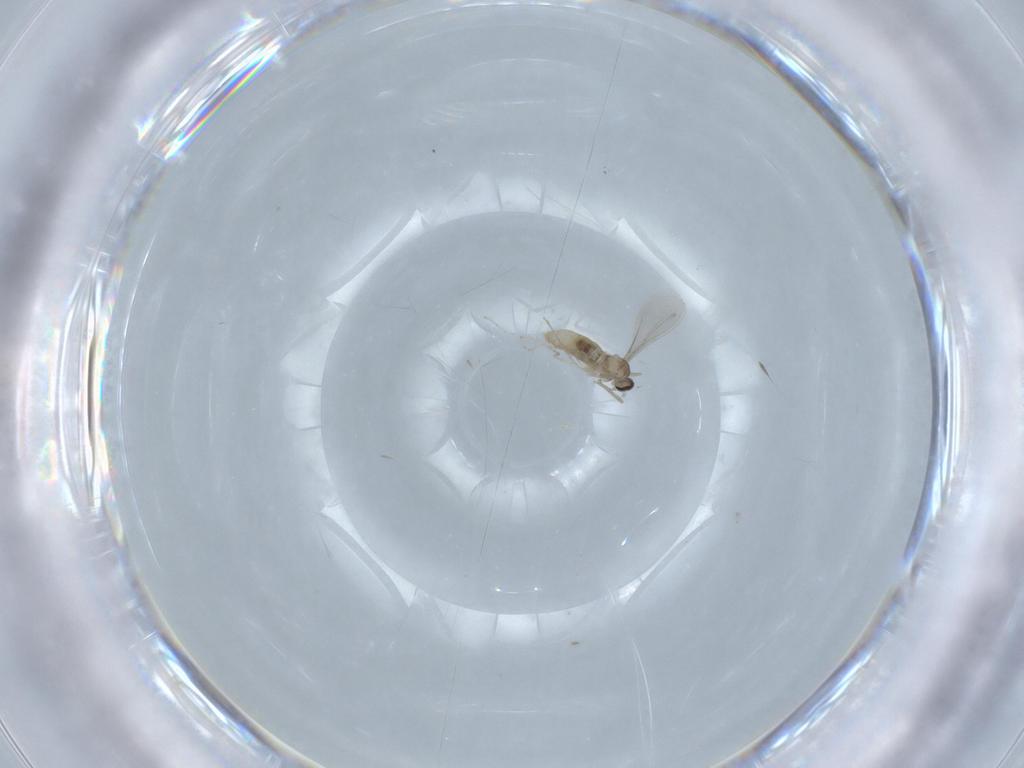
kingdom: Animalia
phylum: Arthropoda
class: Insecta
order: Diptera
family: Cecidomyiidae
